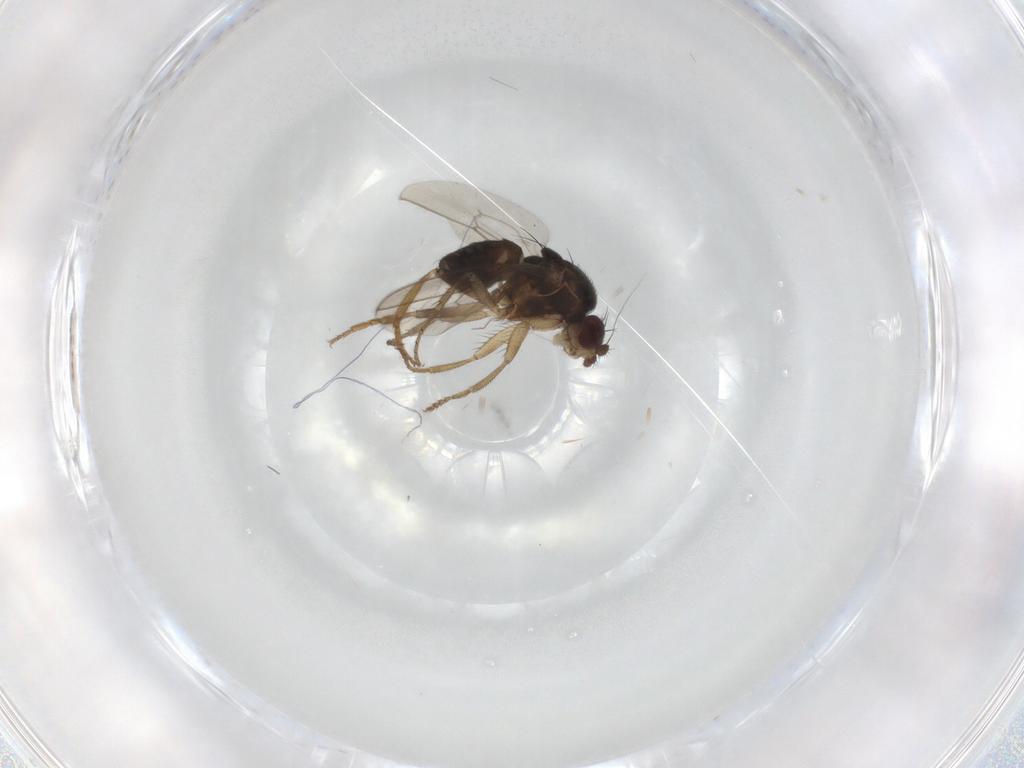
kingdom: Animalia
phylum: Arthropoda
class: Insecta
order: Diptera
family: Sphaeroceridae
